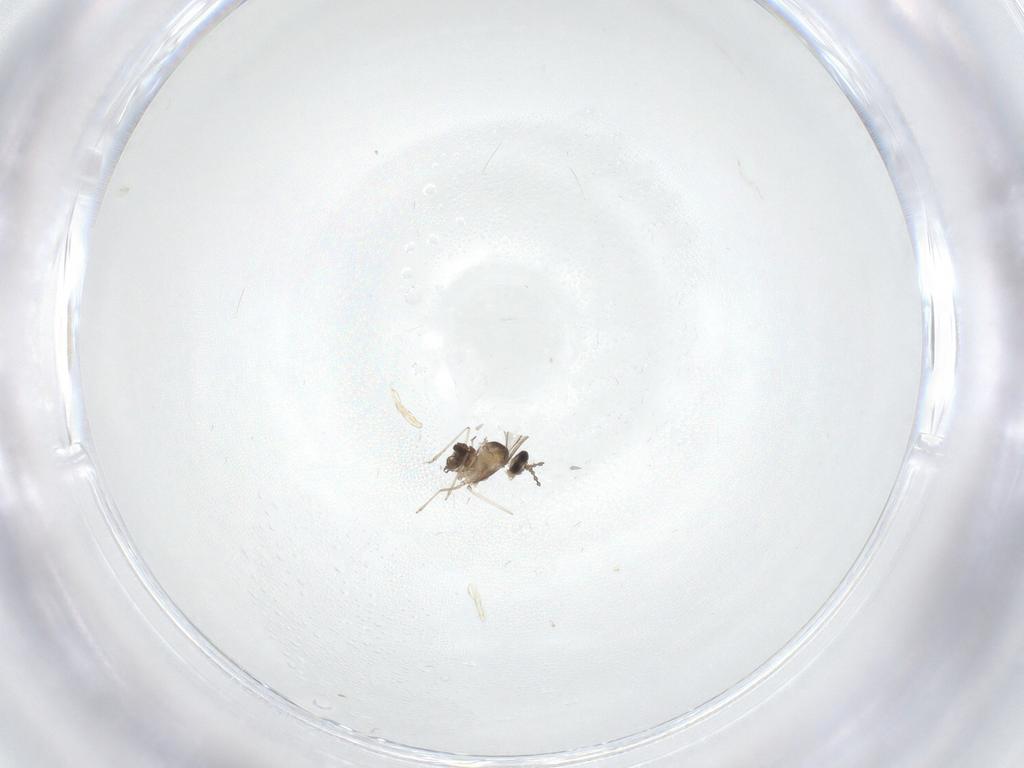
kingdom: Animalia
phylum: Arthropoda
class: Insecta
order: Diptera
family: Cecidomyiidae
